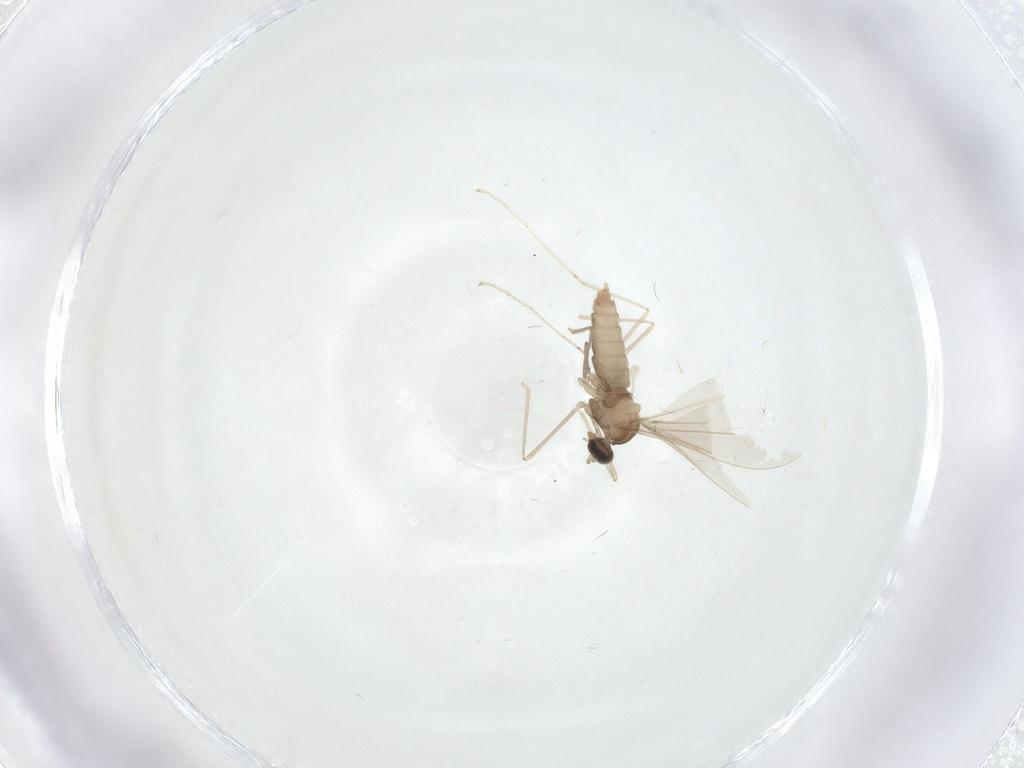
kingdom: Animalia
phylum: Arthropoda
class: Insecta
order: Diptera
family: Cecidomyiidae
